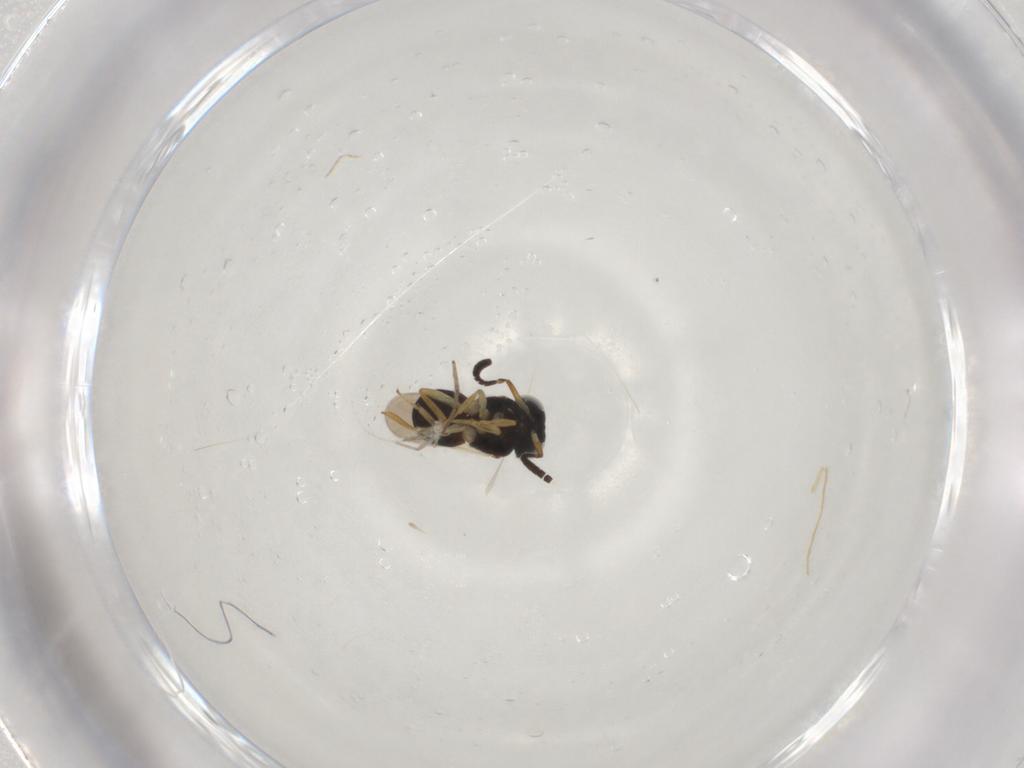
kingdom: Animalia
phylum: Arthropoda
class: Insecta
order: Hymenoptera
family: Scelionidae
